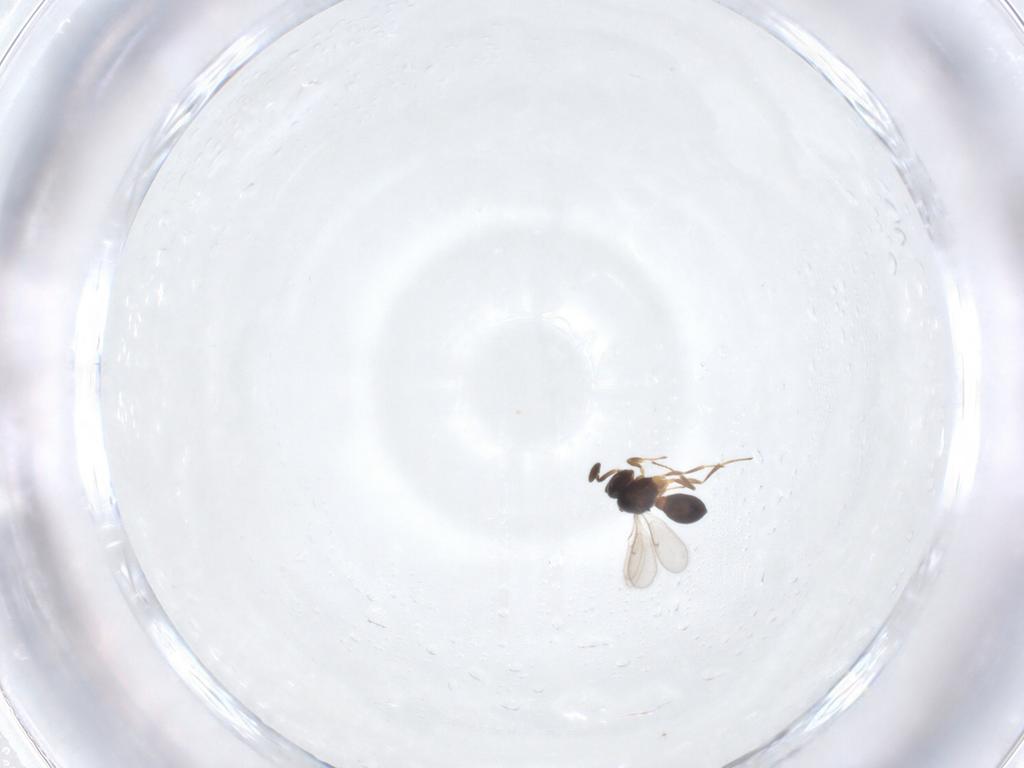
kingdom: Animalia
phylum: Arthropoda
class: Insecta
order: Hymenoptera
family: Scelionidae
